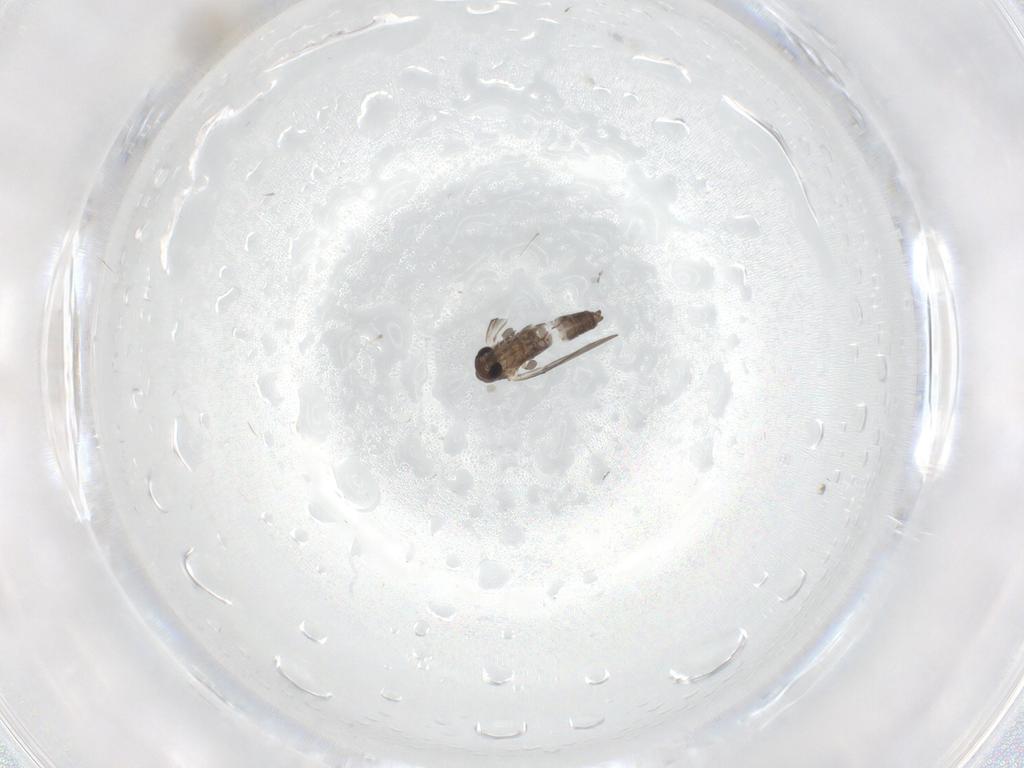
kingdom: Animalia
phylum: Arthropoda
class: Insecta
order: Diptera
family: Cecidomyiidae
